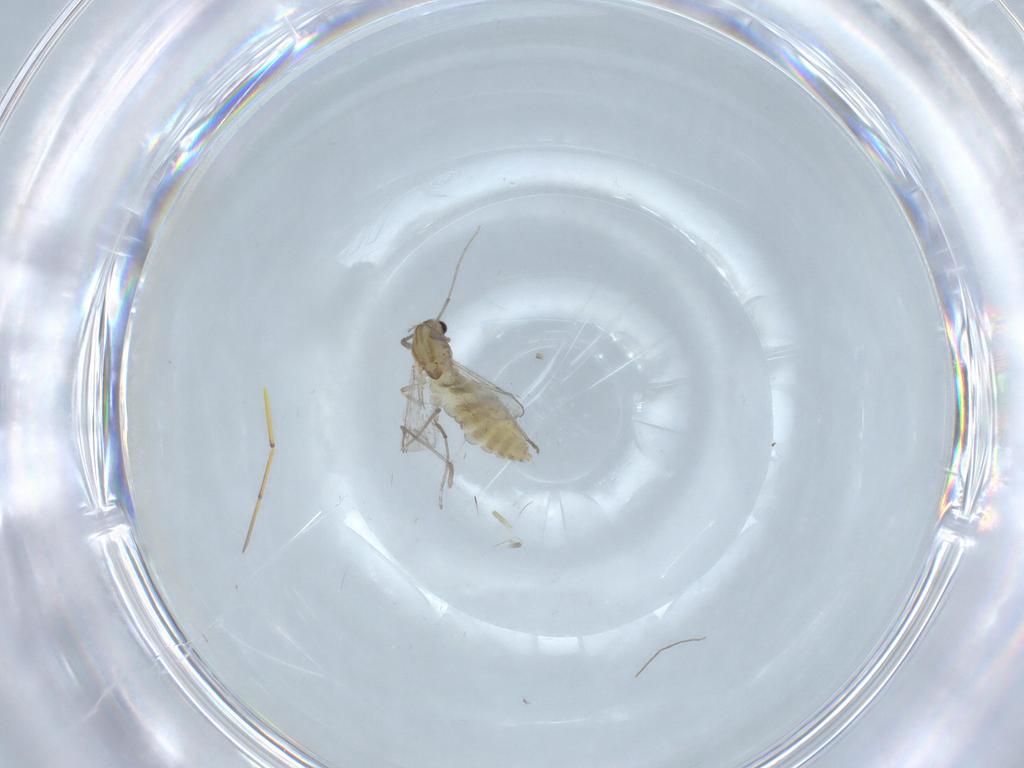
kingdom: Animalia
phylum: Arthropoda
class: Insecta
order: Diptera
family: Chironomidae
